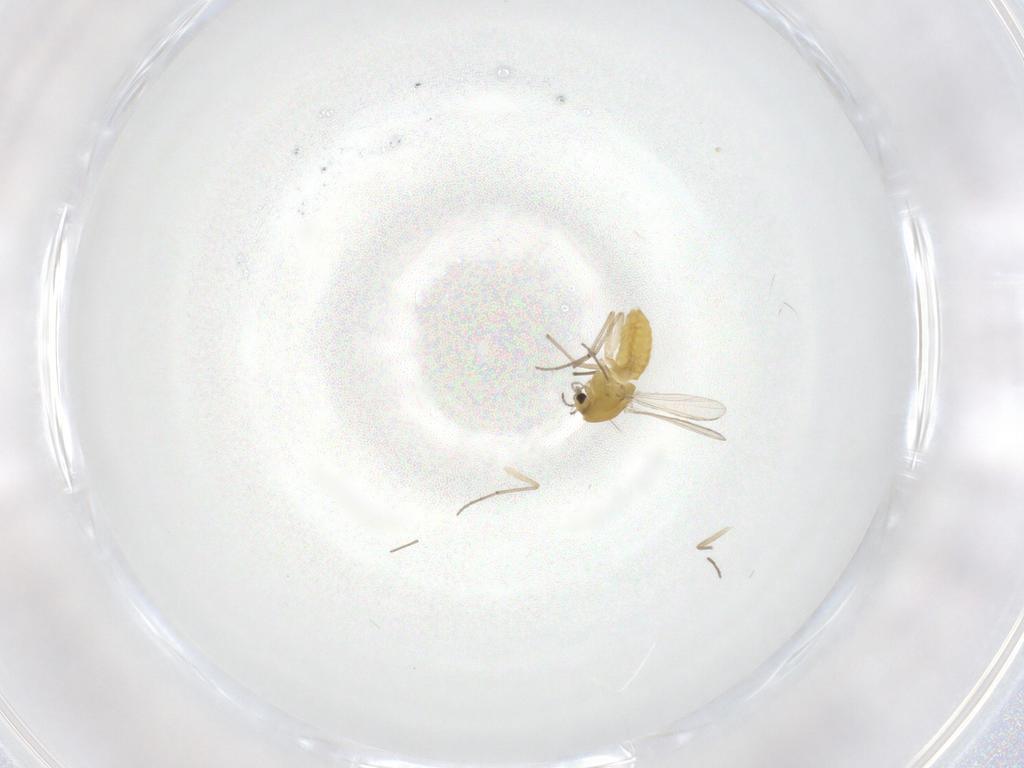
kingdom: Animalia
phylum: Arthropoda
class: Insecta
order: Diptera
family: Chironomidae
